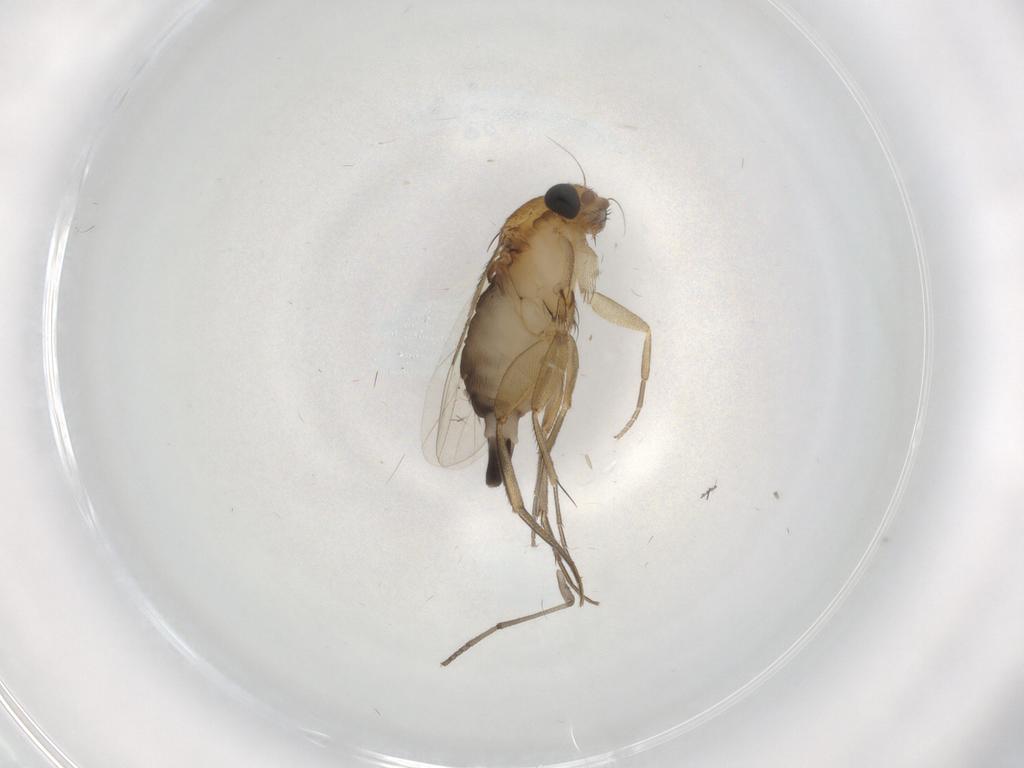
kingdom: Animalia
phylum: Arthropoda
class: Insecta
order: Diptera
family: Phoridae
